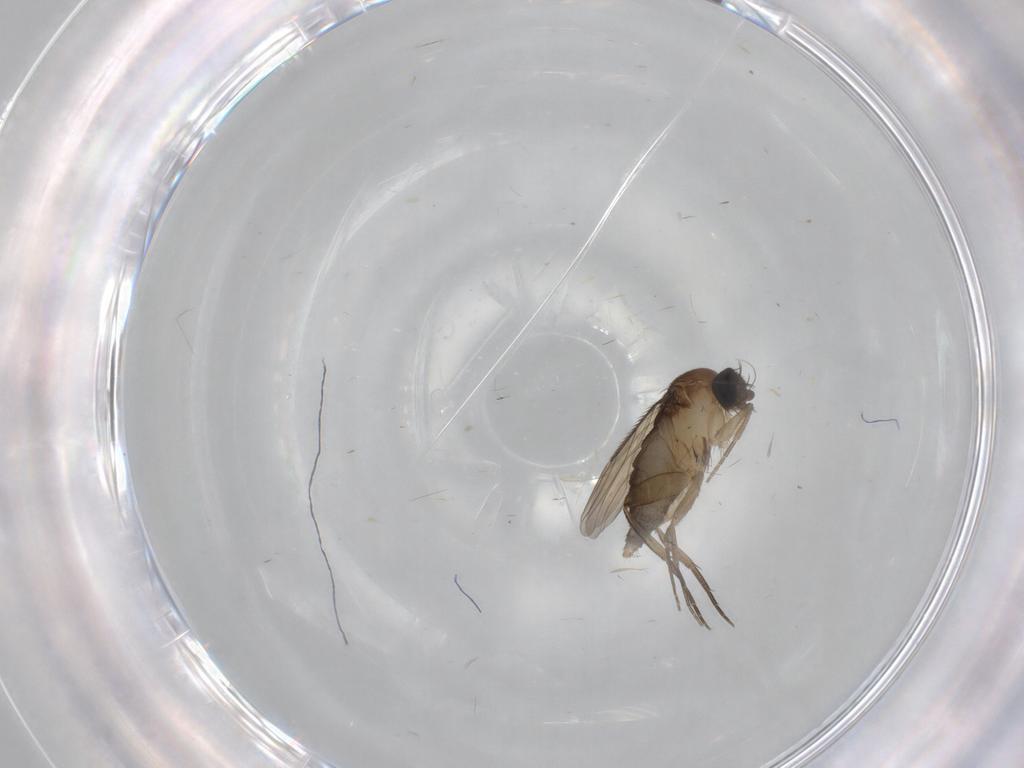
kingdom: Animalia
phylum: Arthropoda
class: Insecta
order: Diptera
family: Phoridae
